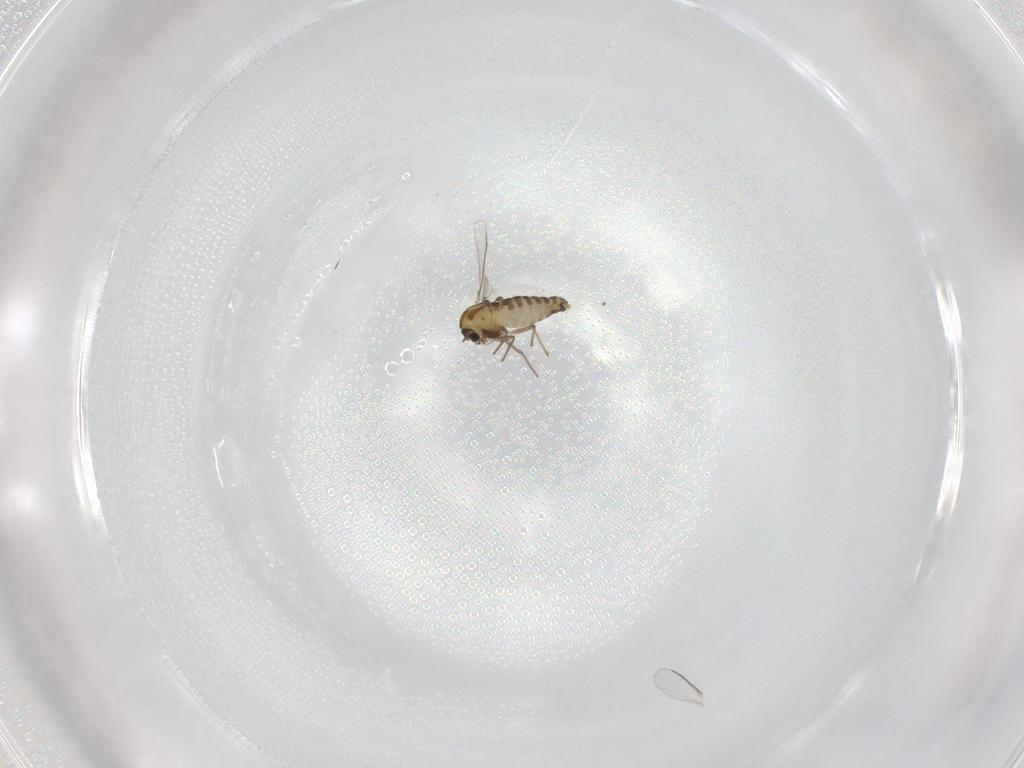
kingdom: Animalia
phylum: Arthropoda
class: Insecta
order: Diptera
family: Chironomidae
